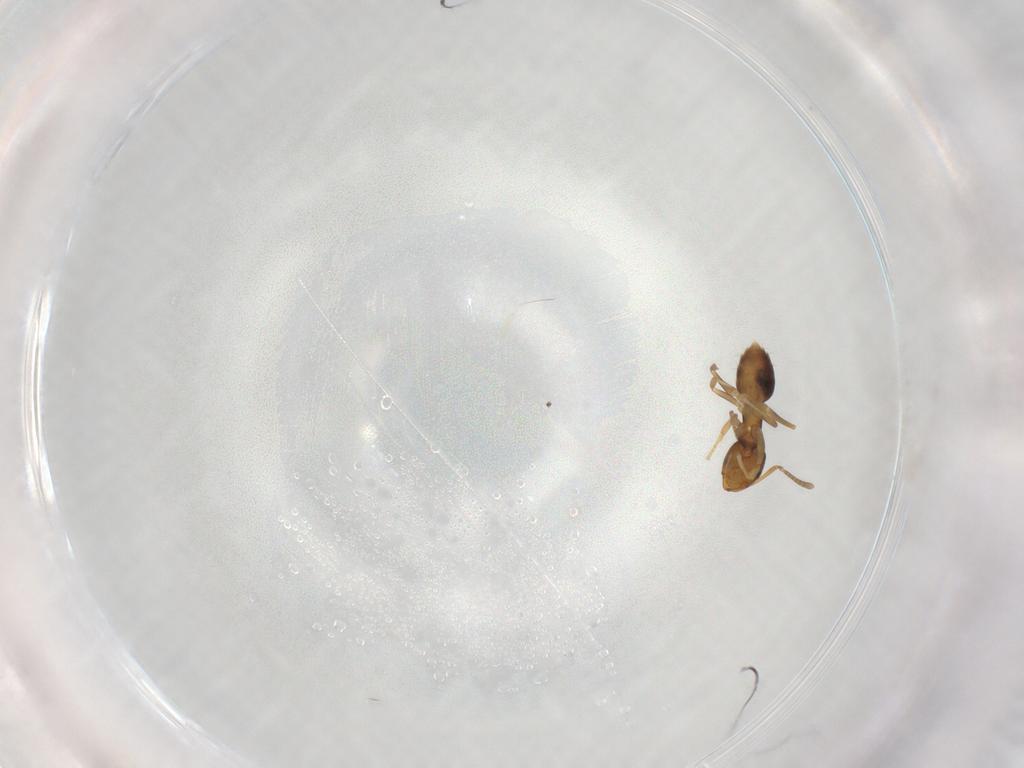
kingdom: Animalia
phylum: Arthropoda
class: Insecta
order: Hymenoptera
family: Formicidae
